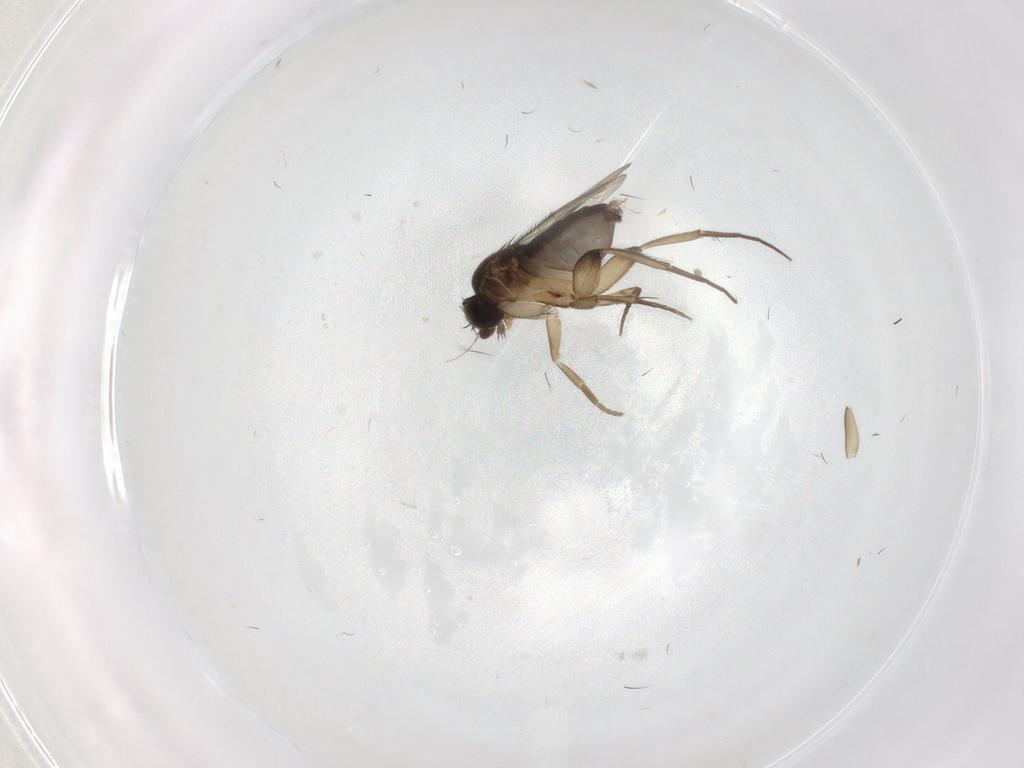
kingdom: Animalia
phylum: Arthropoda
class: Insecta
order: Diptera
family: Phoridae
